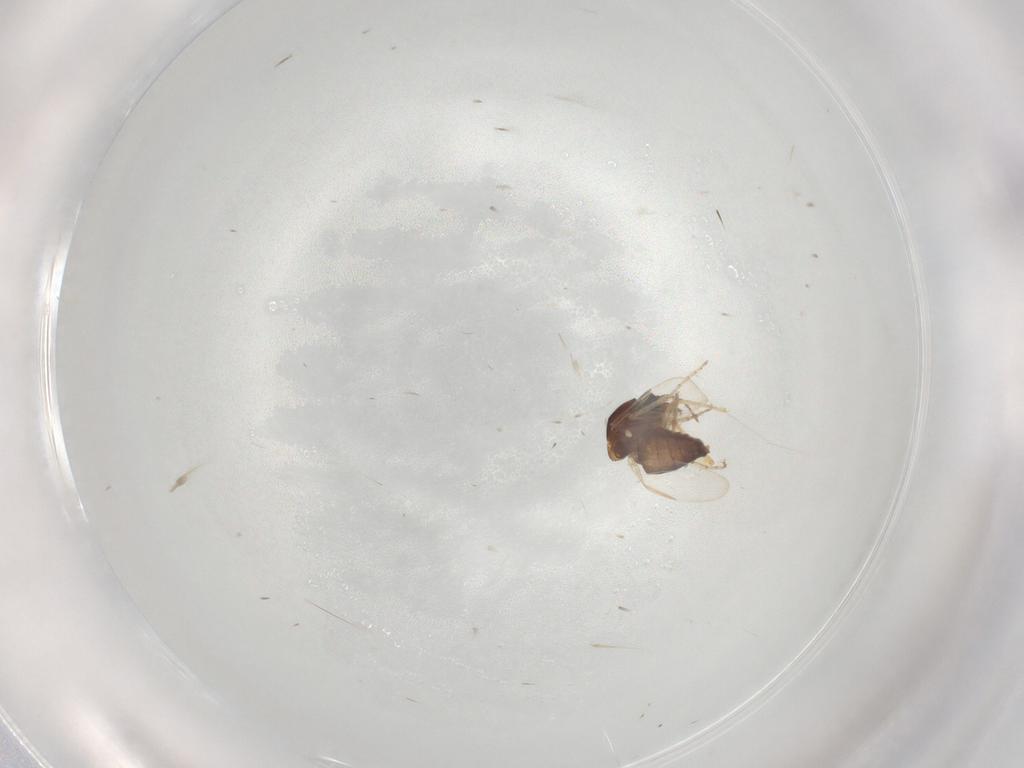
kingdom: Animalia
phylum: Arthropoda
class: Insecta
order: Diptera
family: Ceratopogonidae
